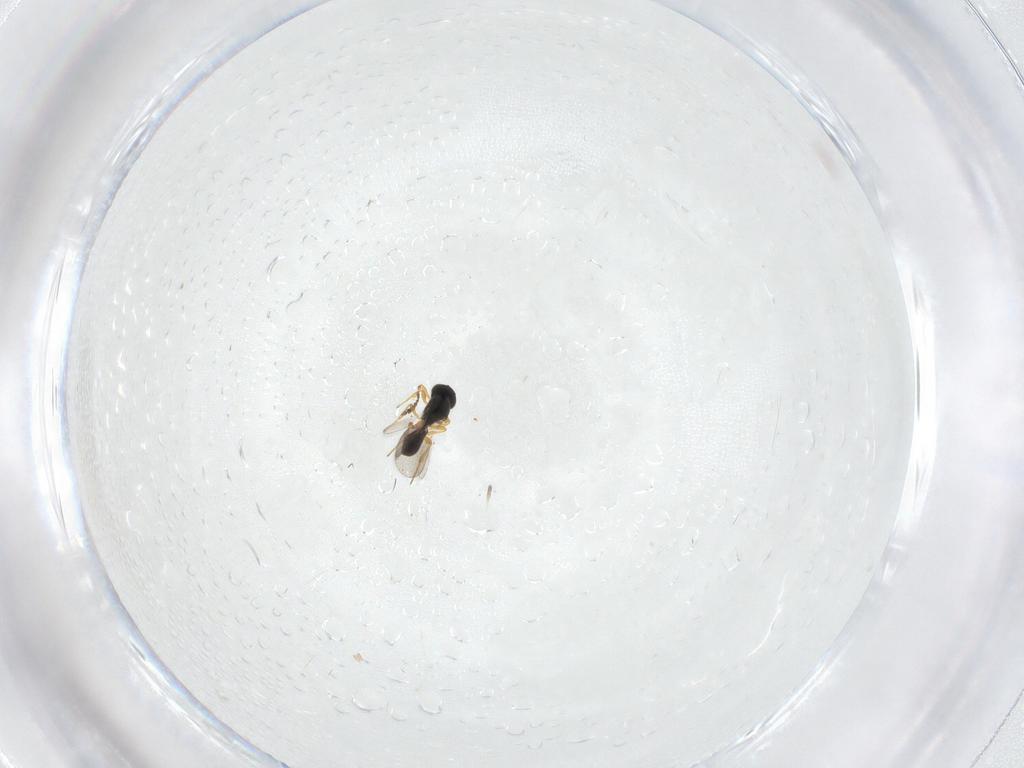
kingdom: Animalia
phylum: Arthropoda
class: Insecta
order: Hymenoptera
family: Platygastridae
